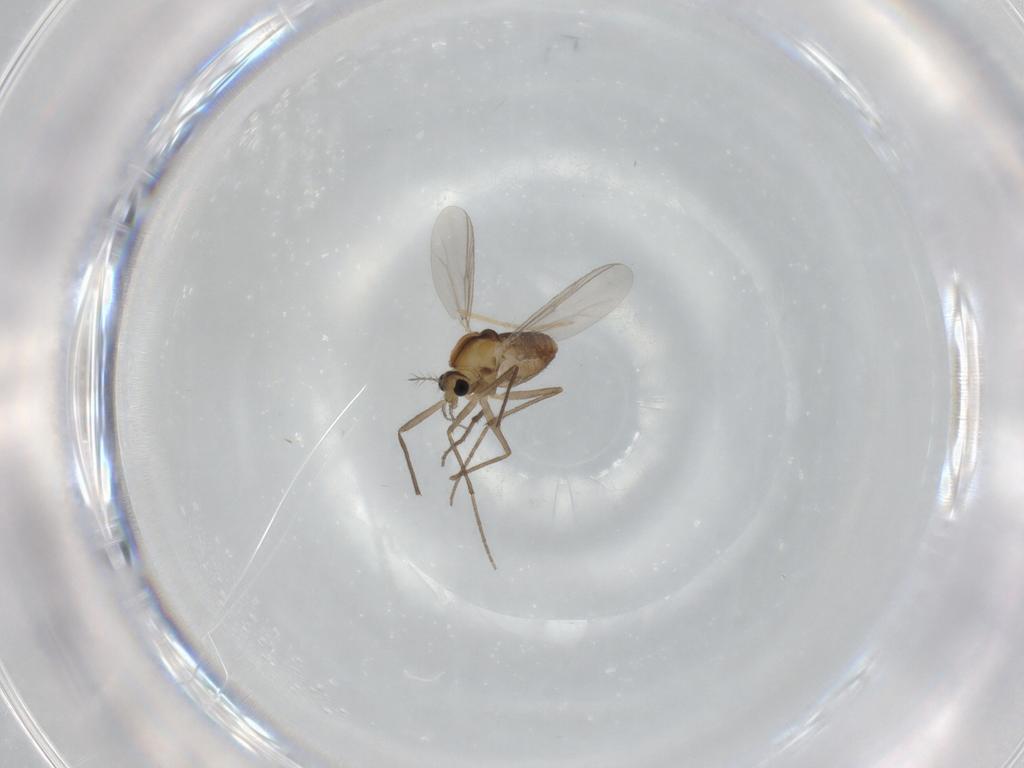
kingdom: Animalia
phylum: Arthropoda
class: Insecta
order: Diptera
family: Chironomidae
